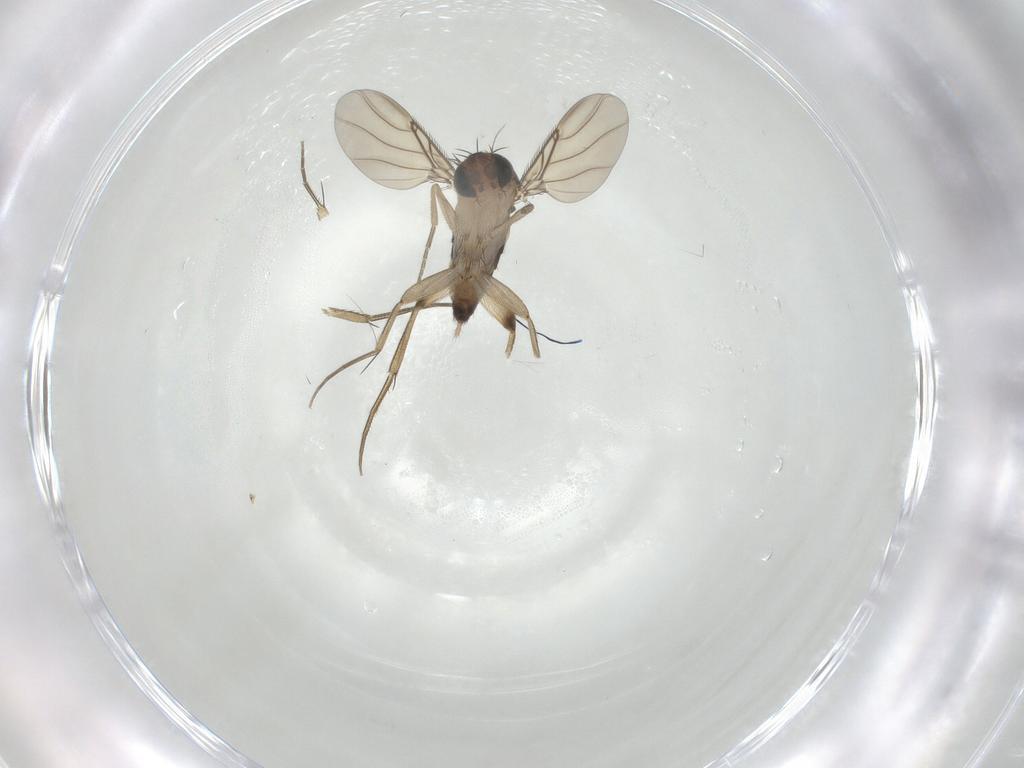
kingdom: Animalia
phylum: Arthropoda
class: Insecta
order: Diptera
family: Phoridae
